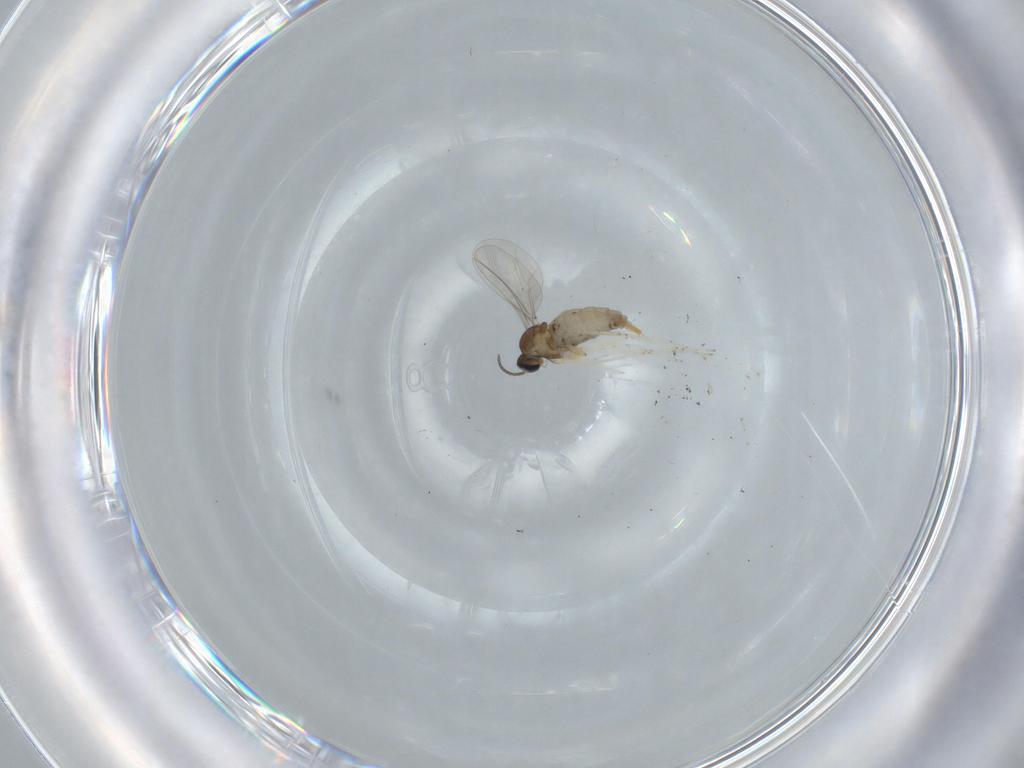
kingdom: Animalia
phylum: Arthropoda
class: Insecta
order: Diptera
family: Cecidomyiidae
